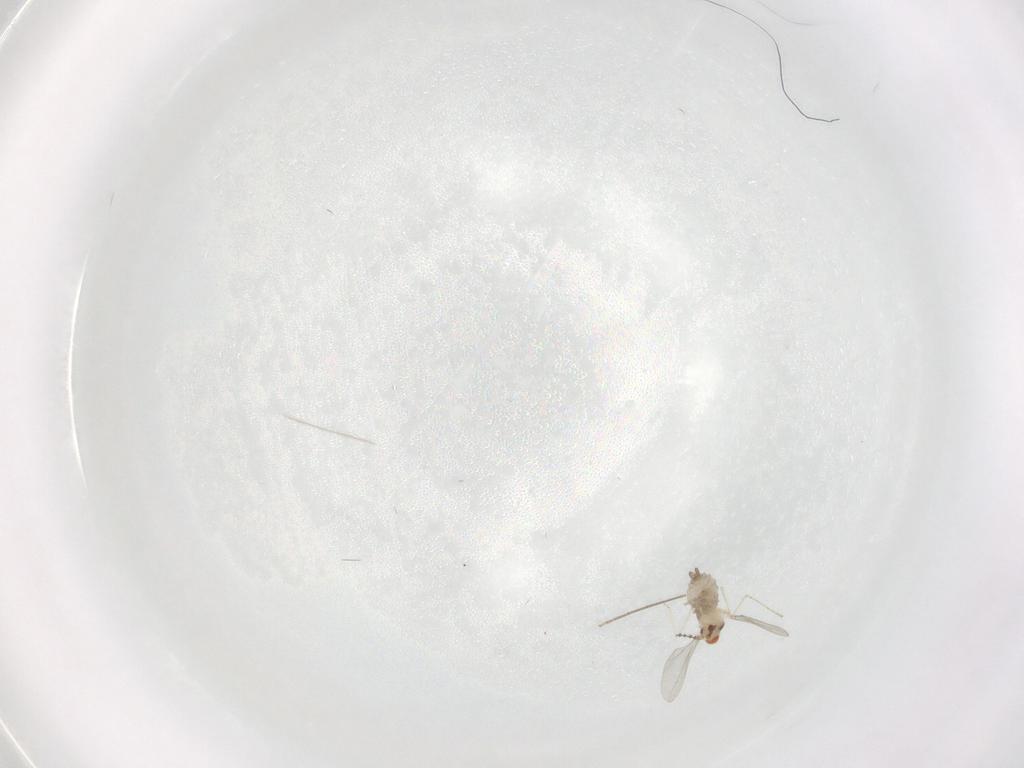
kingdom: Animalia
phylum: Arthropoda
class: Insecta
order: Diptera
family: Cecidomyiidae
